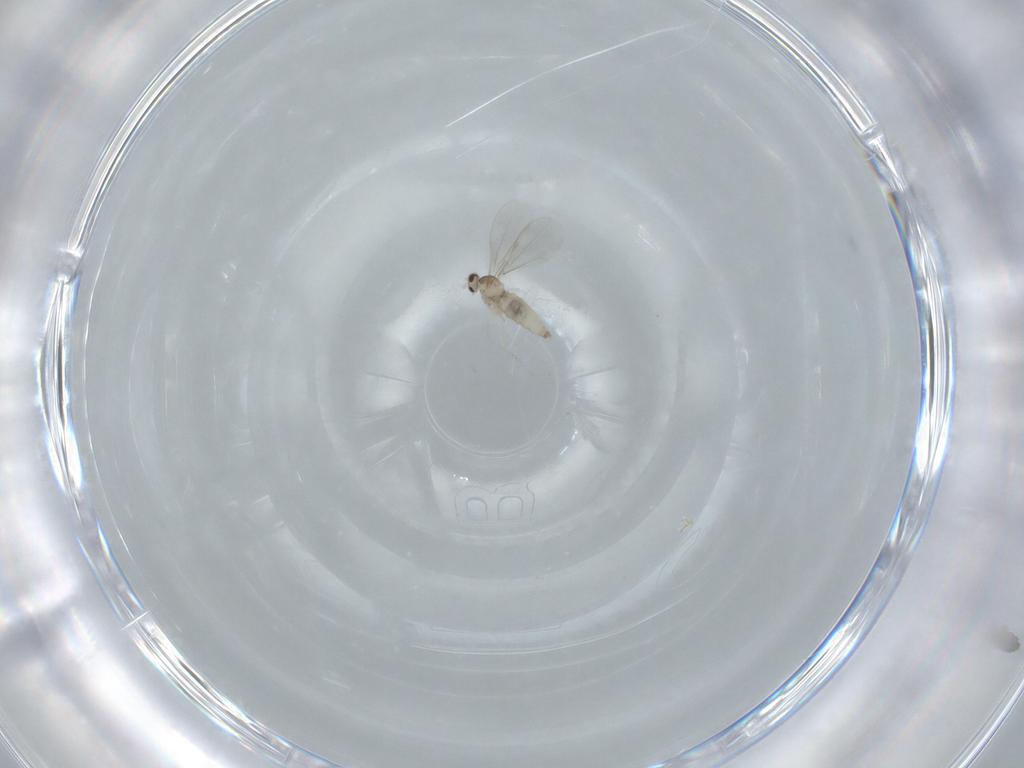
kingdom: Animalia
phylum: Arthropoda
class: Insecta
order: Diptera
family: Cecidomyiidae
